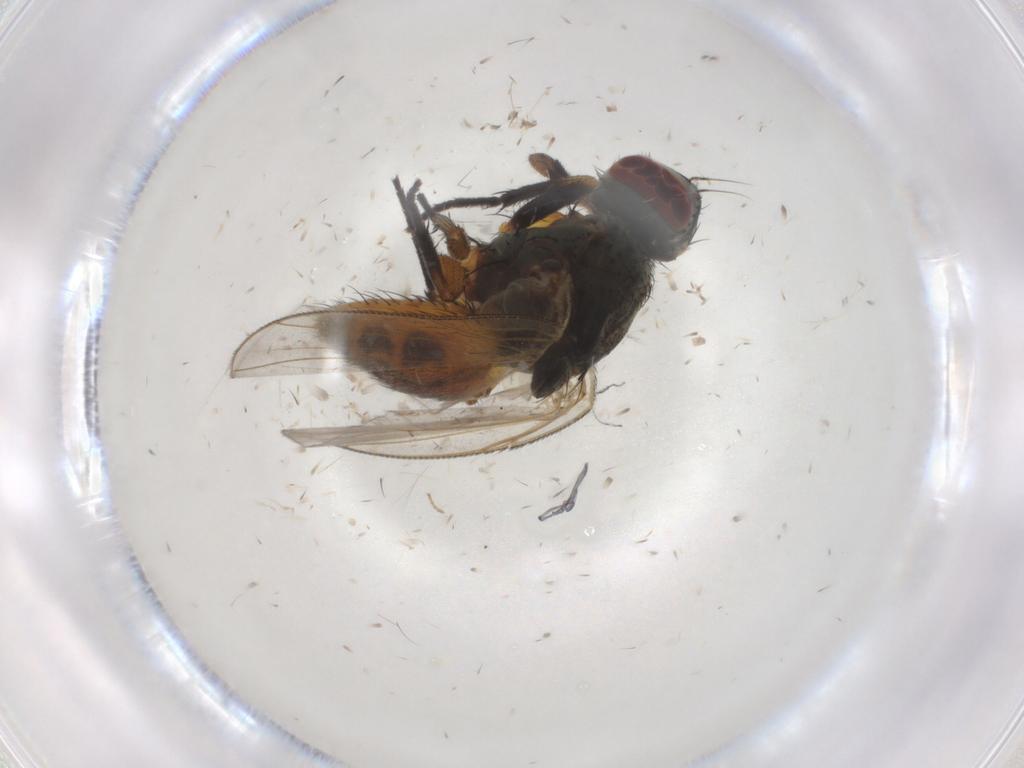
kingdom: Animalia
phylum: Arthropoda
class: Insecta
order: Diptera
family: Muscidae
